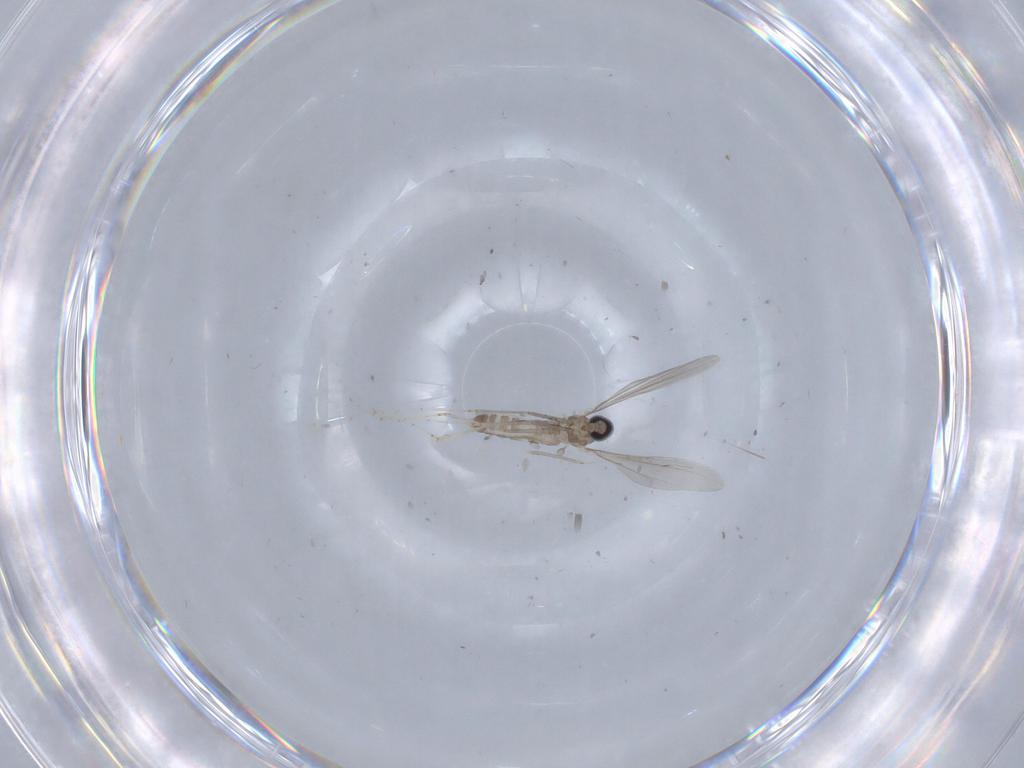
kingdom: Animalia
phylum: Arthropoda
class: Insecta
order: Diptera
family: Cecidomyiidae
